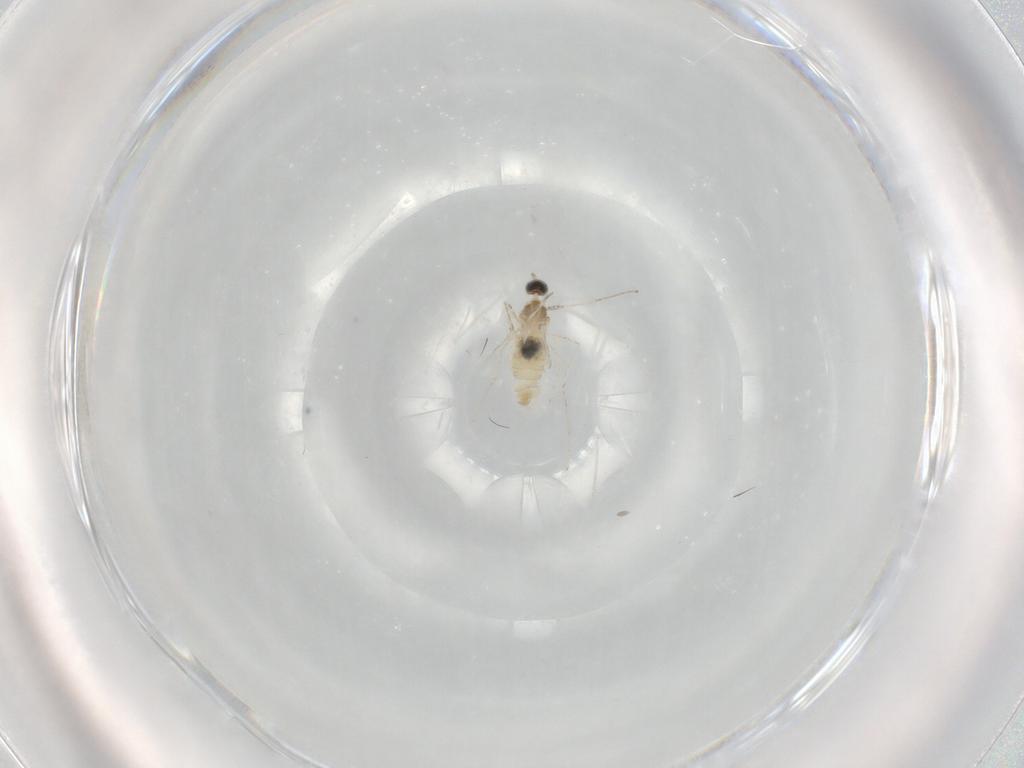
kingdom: Animalia
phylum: Arthropoda
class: Insecta
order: Diptera
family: Cecidomyiidae
